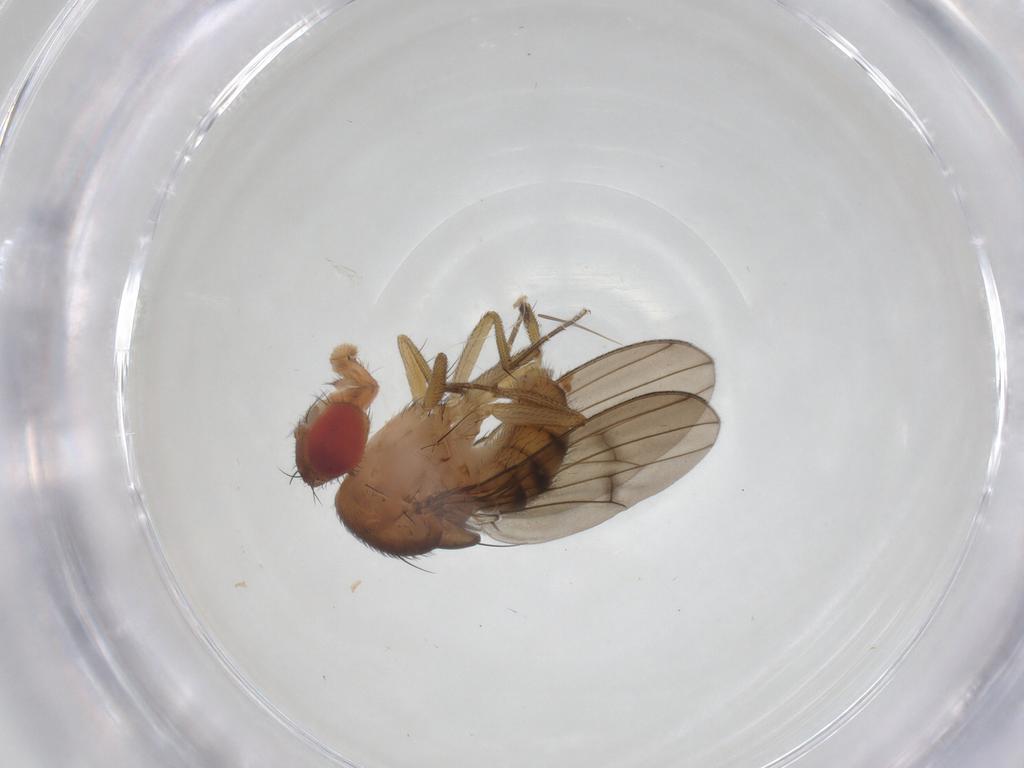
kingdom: Animalia
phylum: Arthropoda
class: Insecta
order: Diptera
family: Drosophilidae
